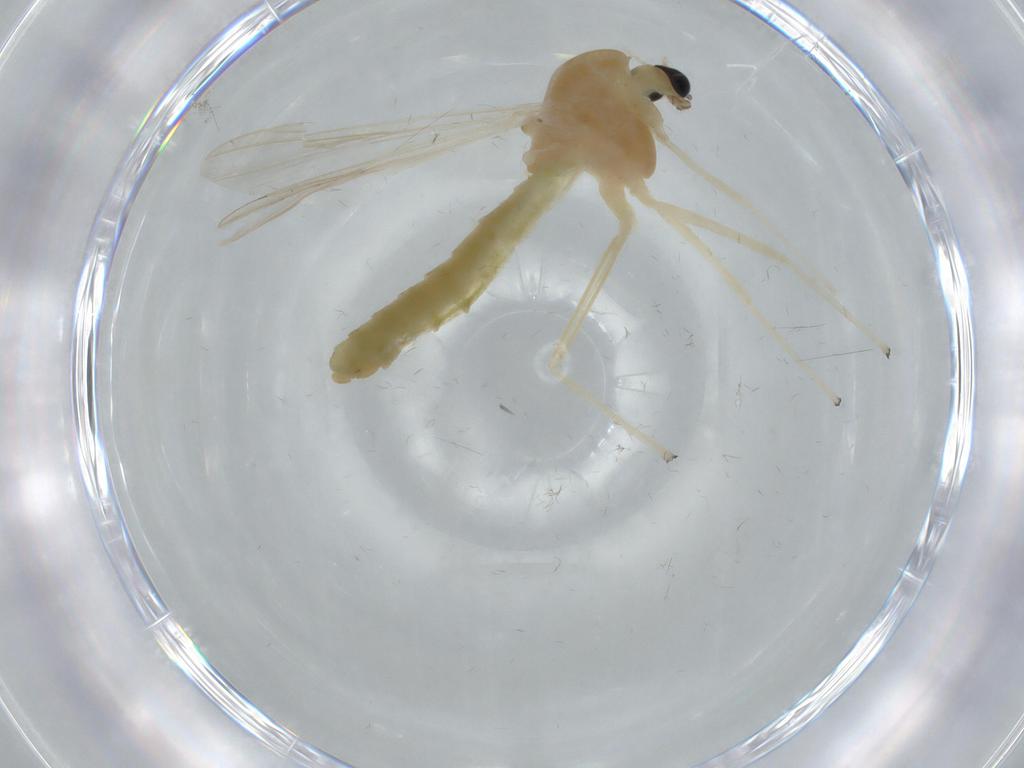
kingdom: Animalia
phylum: Arthropoda
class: Insecta
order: Diptera
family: Chironomidae
